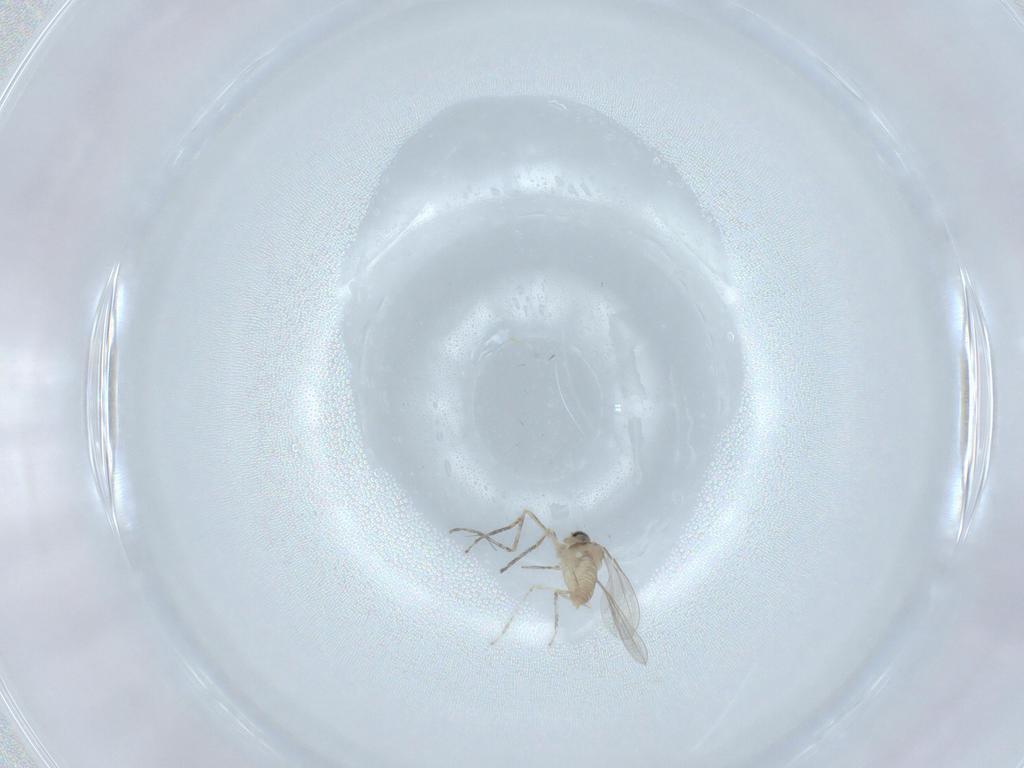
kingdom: Animalia
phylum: Arthropoda
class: Insecta
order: Diptera
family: Cecidomyiidae
